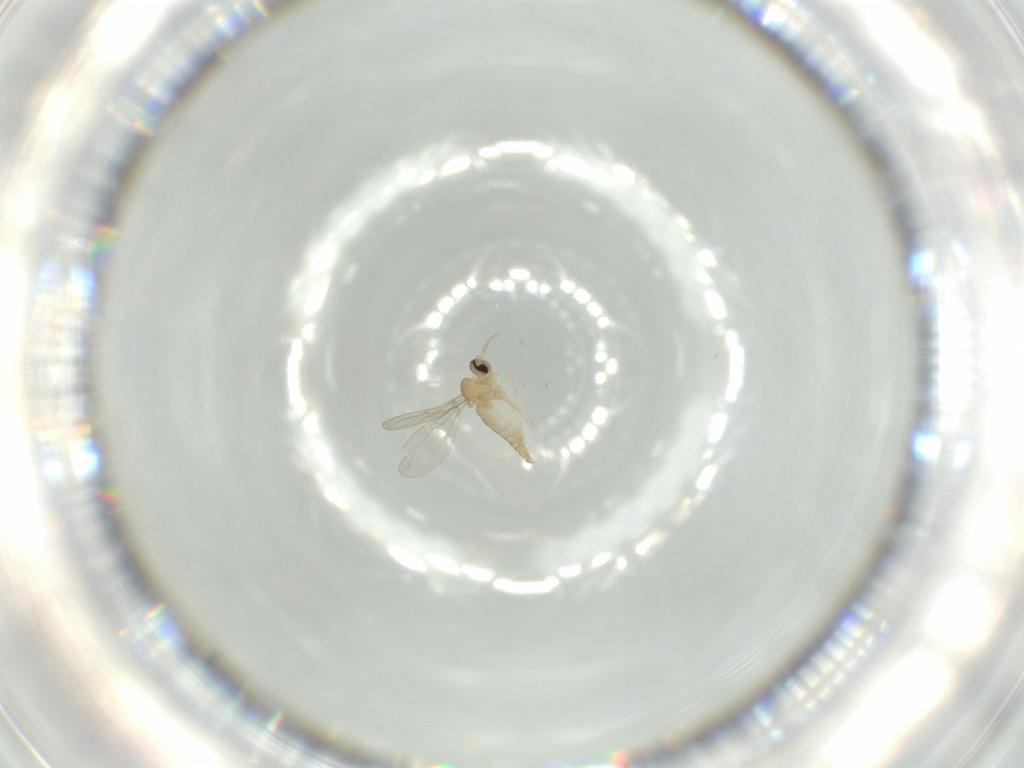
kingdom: Animalia
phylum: Arthropoda
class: Insecta
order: Diptera
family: Cecidomyiidae
